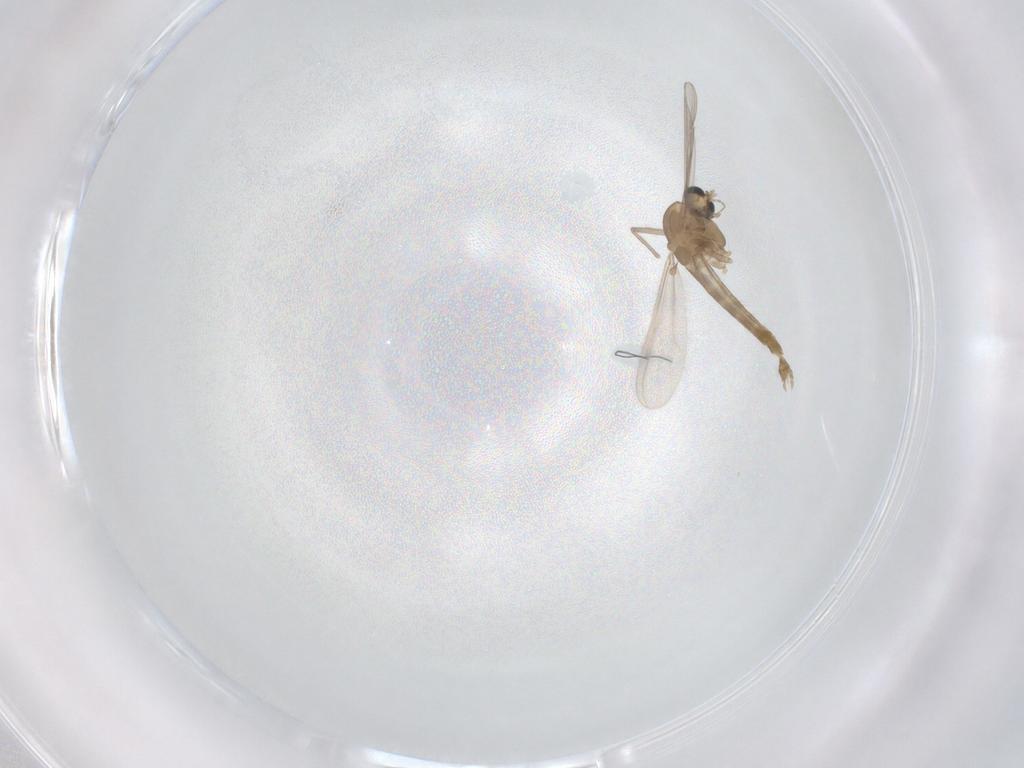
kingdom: Animalia
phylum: Arthropoda
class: Insecta
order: Diptera
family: Chironomidae
